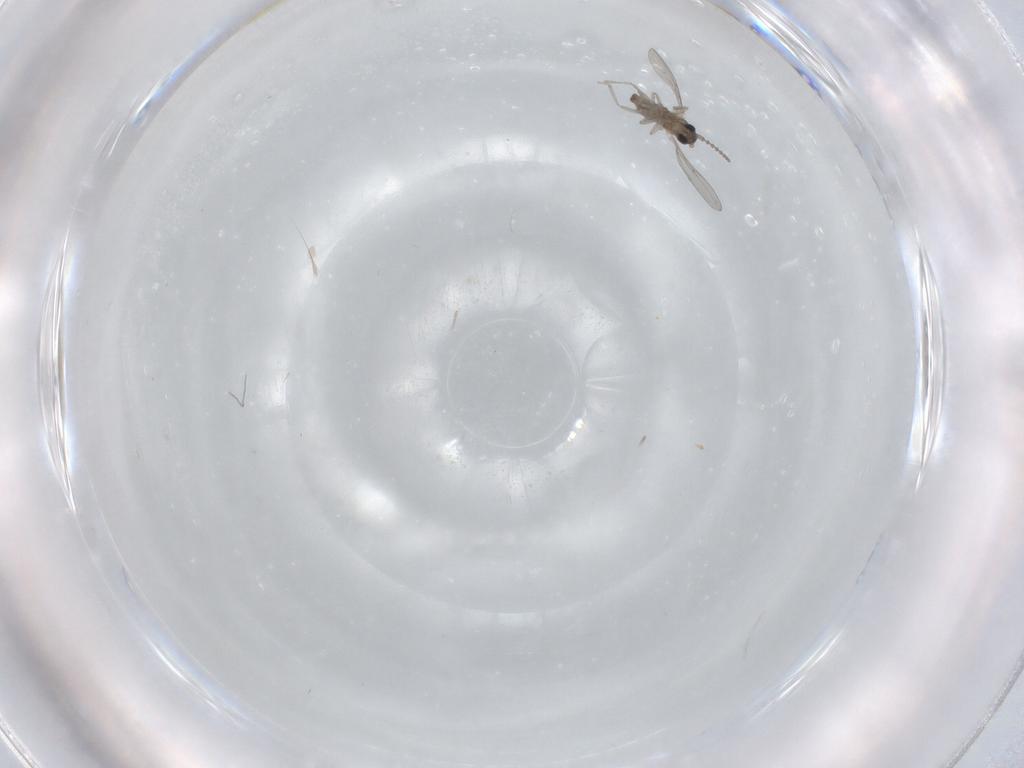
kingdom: Animalia
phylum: Arthropoda
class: Insecta
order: Diptera
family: Cecidomyiidae
